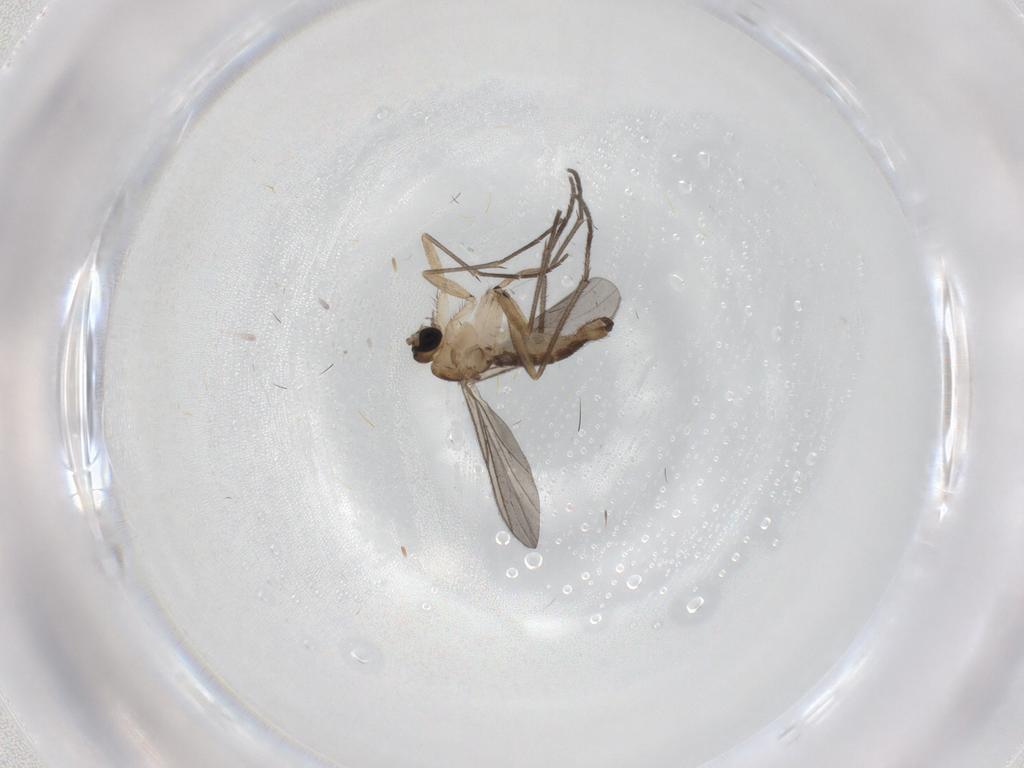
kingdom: Animalia
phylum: Arthropoda
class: Insecta
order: Diptera
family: Sciaridae
